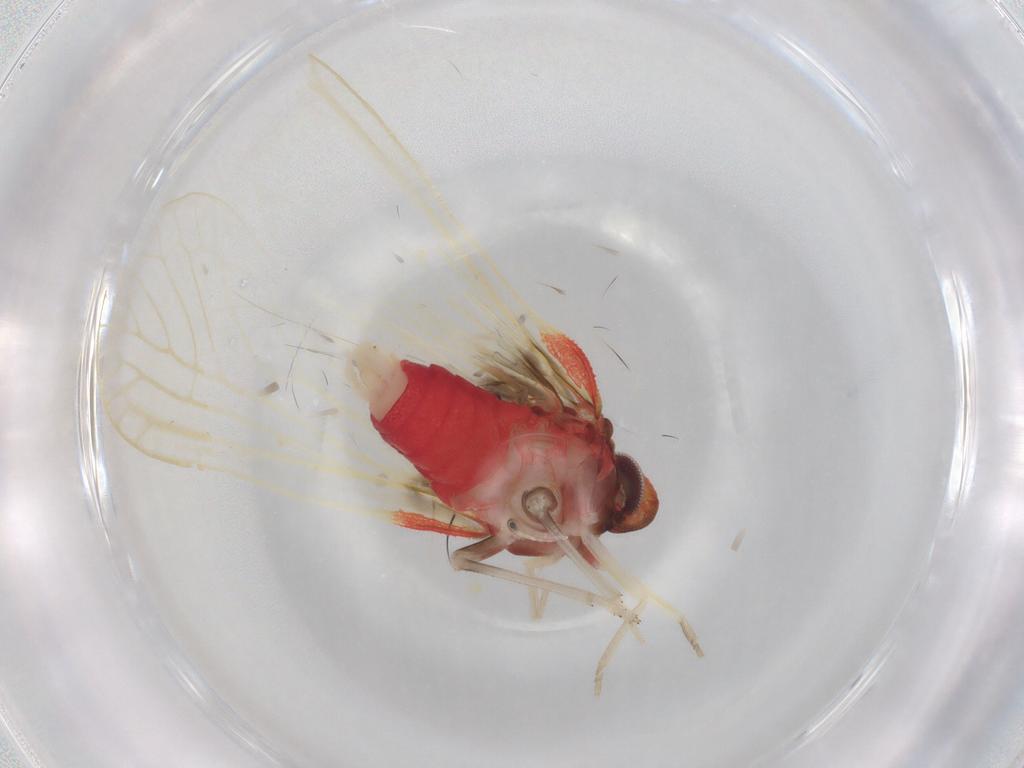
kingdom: Animalia
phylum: Arthropoda
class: Insecta
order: Hemiptera
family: Derbidae
